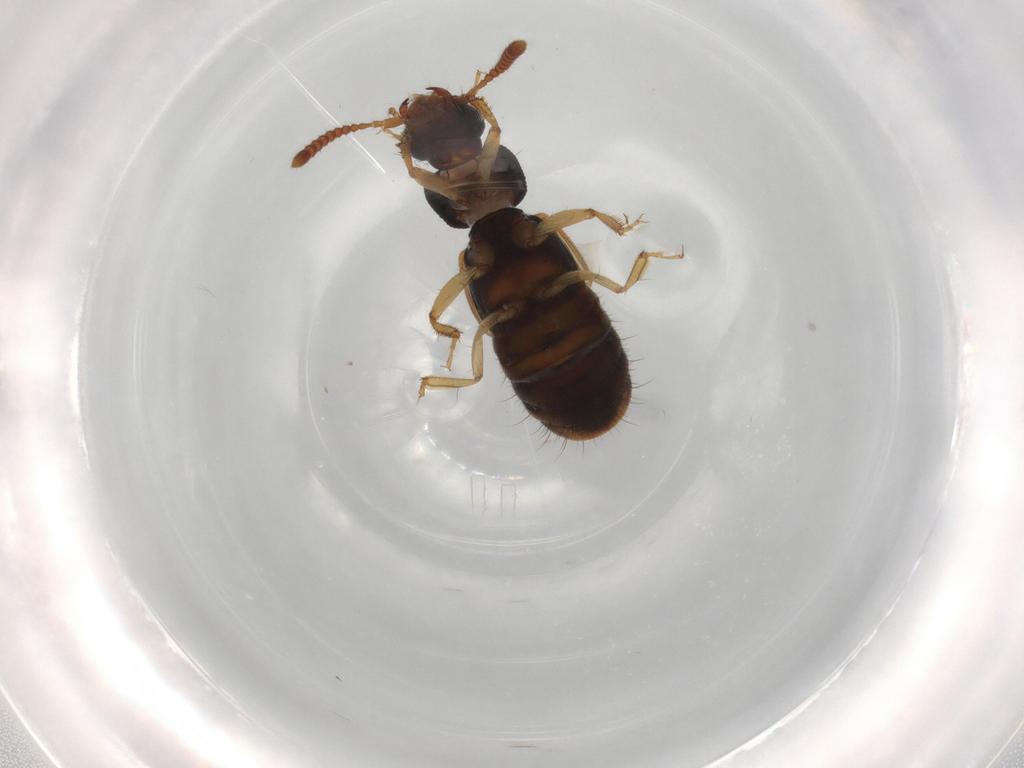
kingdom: Animalia
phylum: Arthropoda
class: Insecta
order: Coleoptera
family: Staphylinidae
